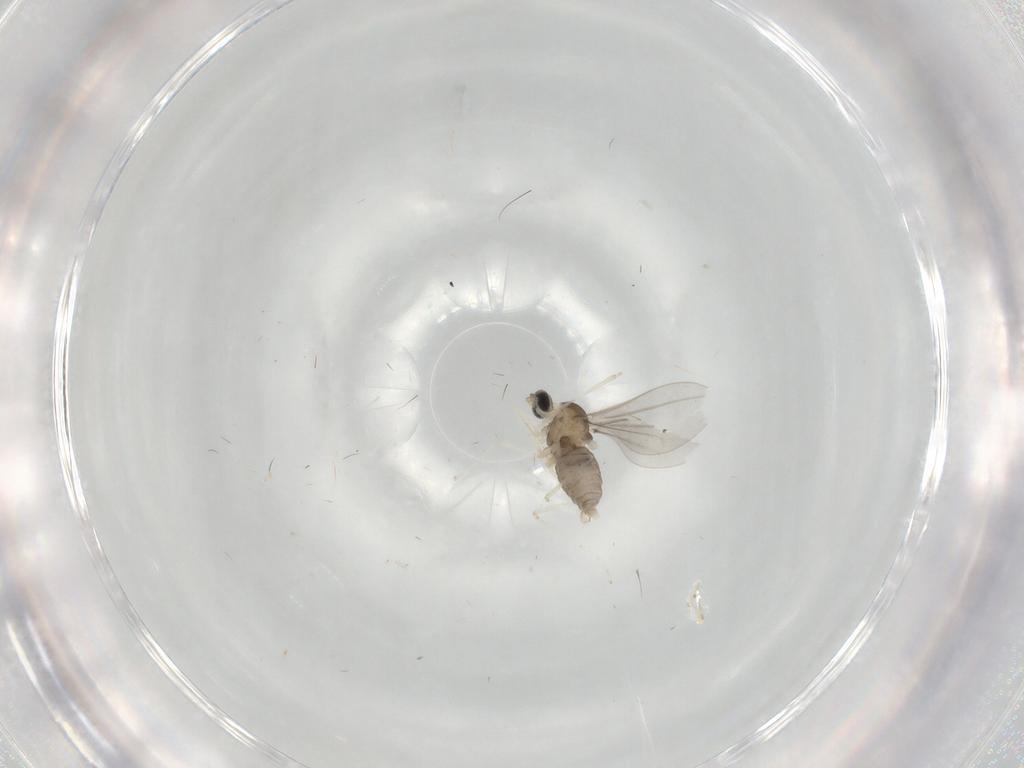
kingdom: Animalia
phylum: Arthropoda
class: Insecta
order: Diptera
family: Cecidomyiidae
